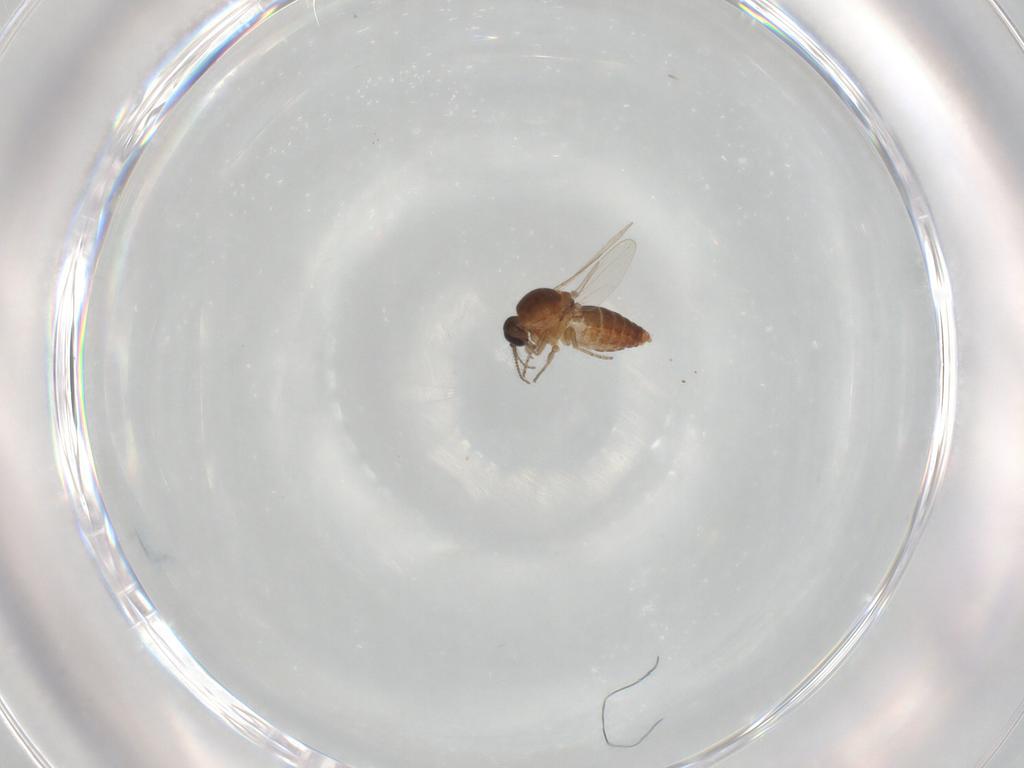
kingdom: Animalia
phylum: Arthropoda
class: Insecta
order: Diptera
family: Ceratopogonidae
